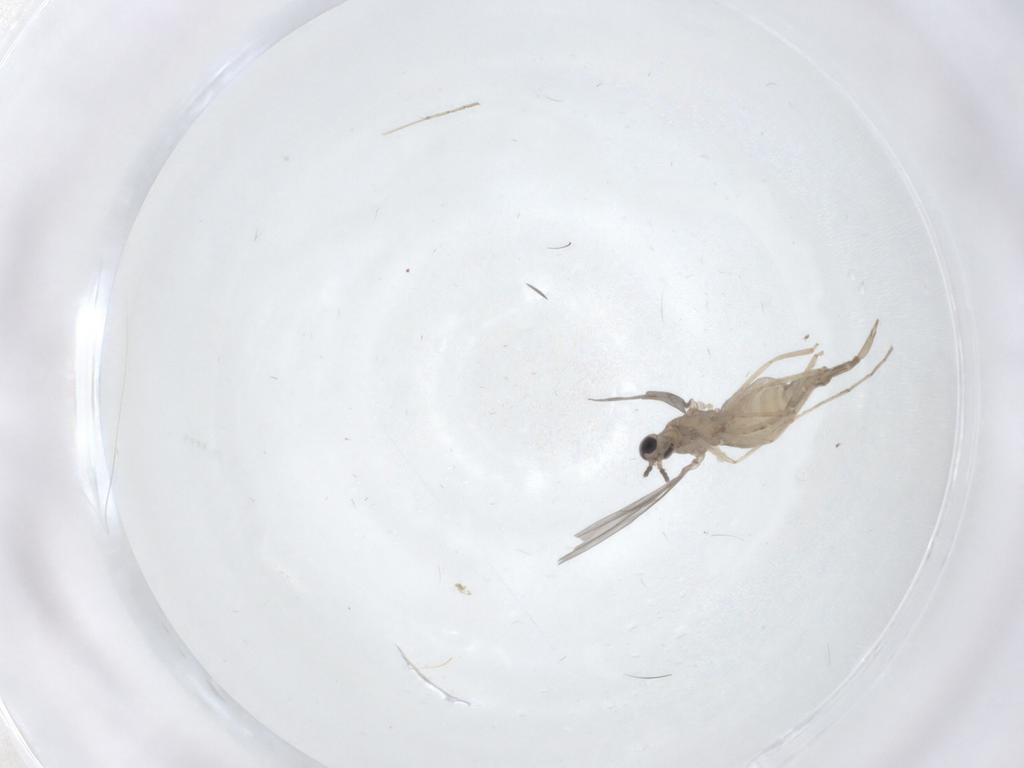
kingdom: Animalia
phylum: Arthropoda
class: Insecta
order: Diptera
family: Cecidomyiidae
